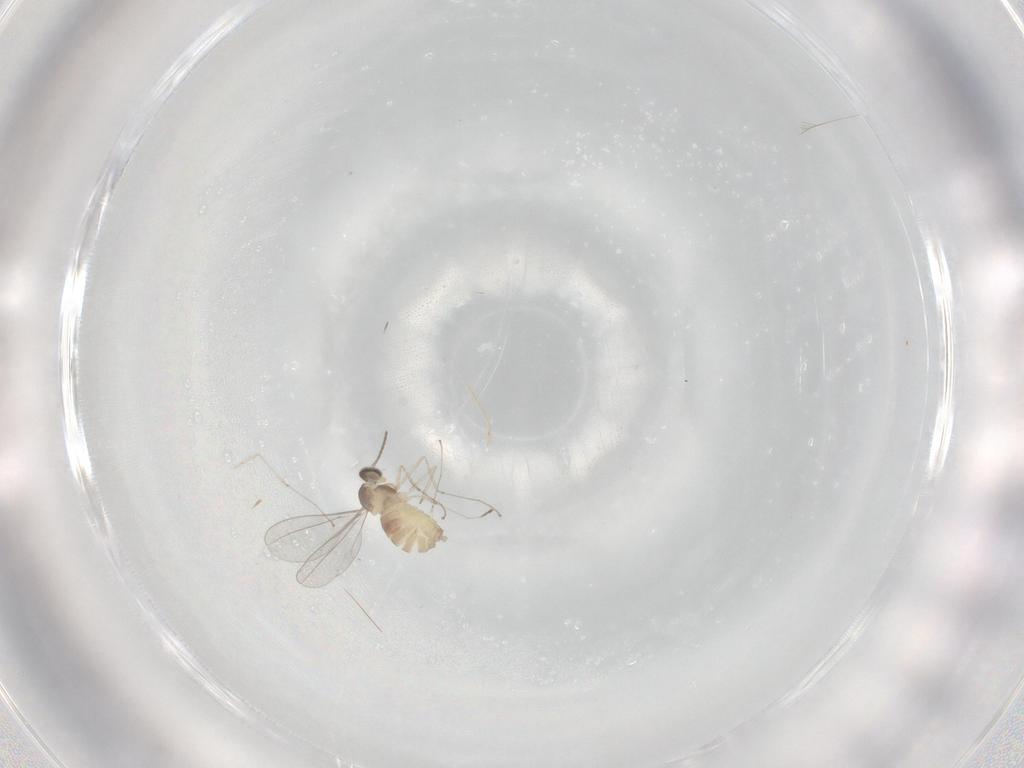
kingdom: Animalia
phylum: Arthropoda
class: Insecta
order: Diptera
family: Cecidomyiidae
